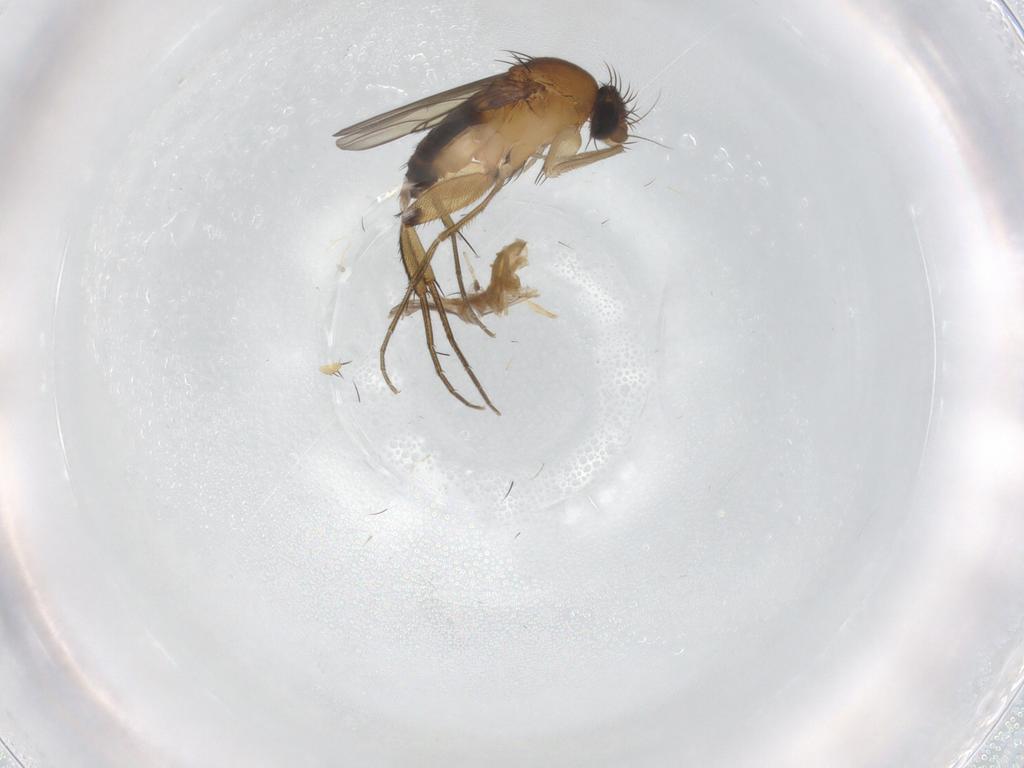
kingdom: Animalia
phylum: Arthropoda
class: Insecta
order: Diptera
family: Phoridae
